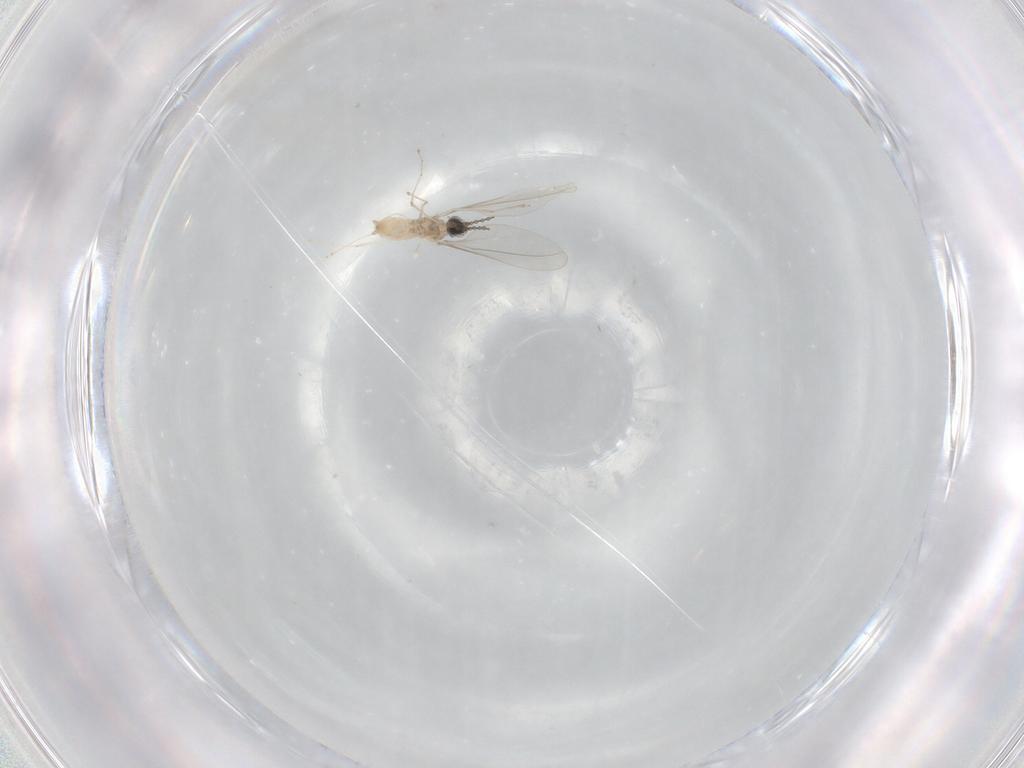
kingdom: Animalia
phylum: Arthropoda
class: Insecta
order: Diptera
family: Cecidomyiidae
